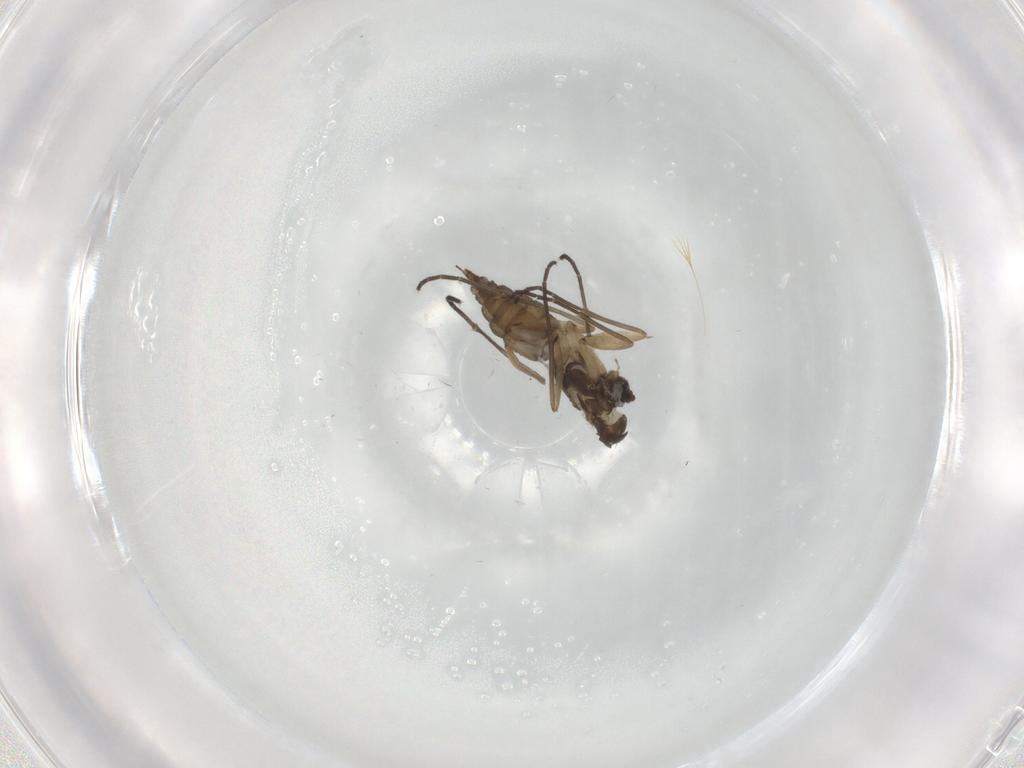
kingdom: Animalia
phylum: Arthropoda
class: Insecta
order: Diptera
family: Sciaridae
